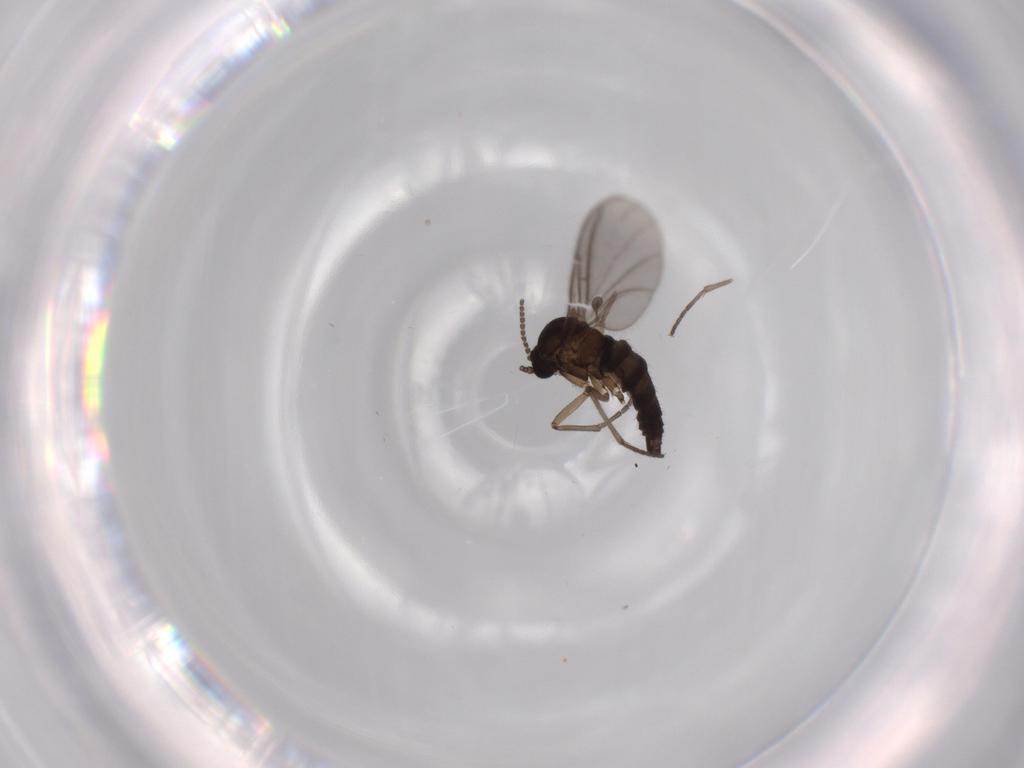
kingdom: Animalia
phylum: Arthropoda
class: Insecta
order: Diptera
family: Sciaridae
